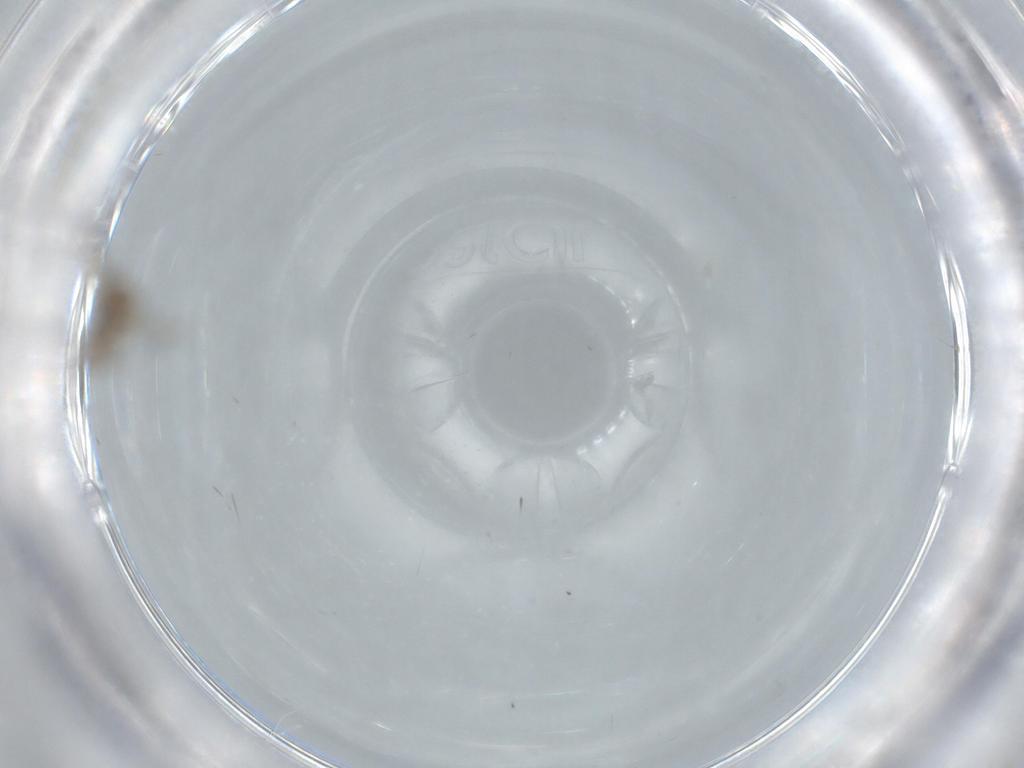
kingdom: Animalia
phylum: Arthropoda
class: Insecta
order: Diptera
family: Chironomidae
